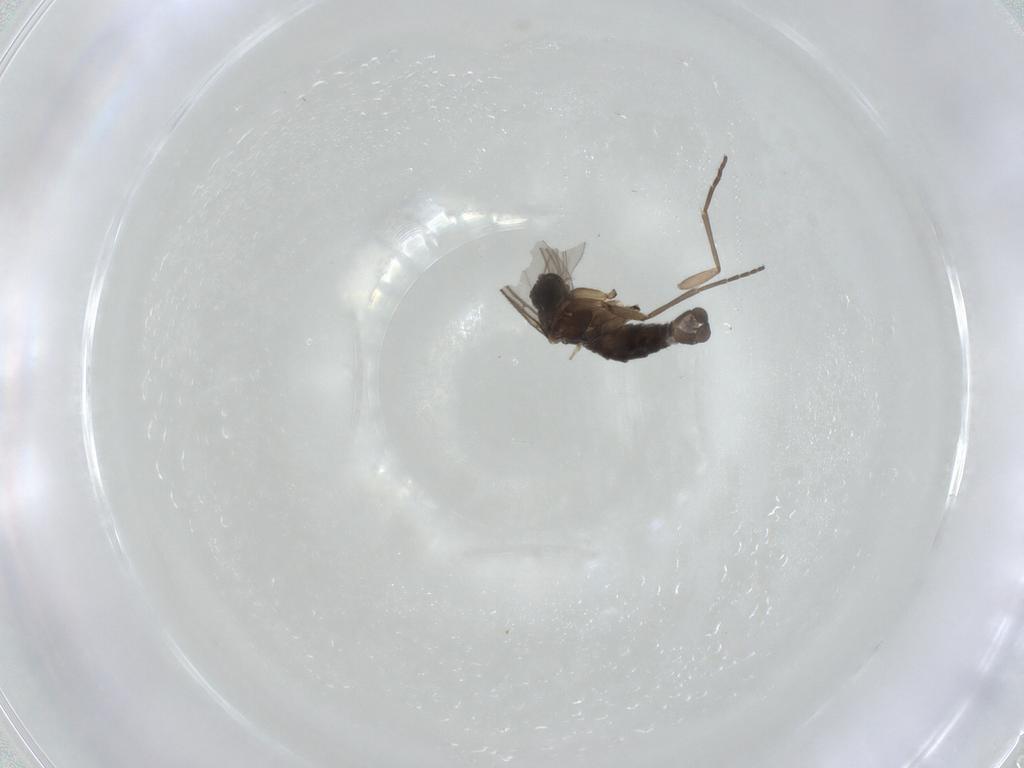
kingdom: Animalia
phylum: Arthropoda
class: Insecta
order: Diptera
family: Sciaridae
